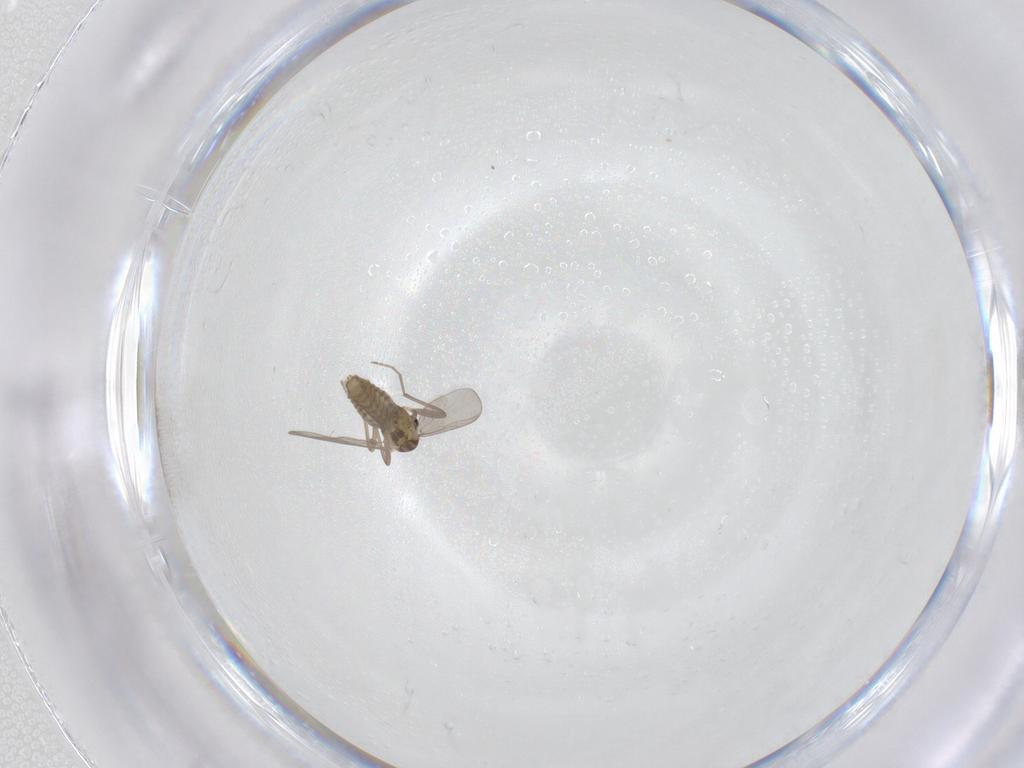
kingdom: Animalia
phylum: Arthropoda
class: Insecta
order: Diptera
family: Chironomidae
